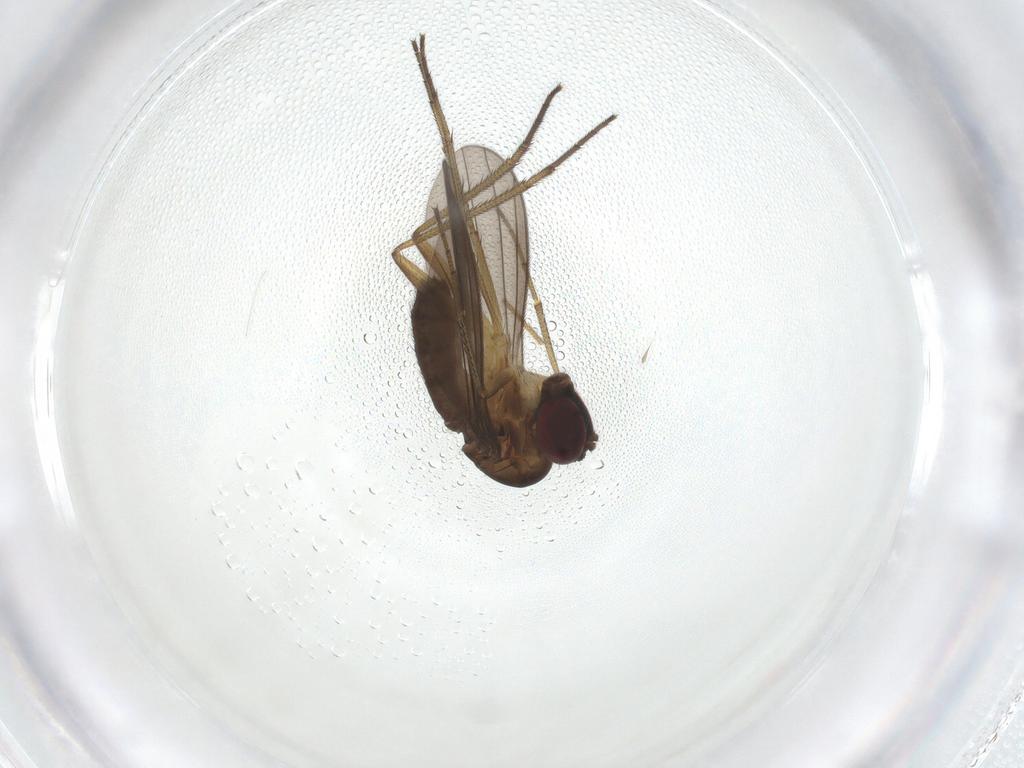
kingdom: Animalia
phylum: Arthropoda
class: Insecta
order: Diptera
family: Dolichopodidae
